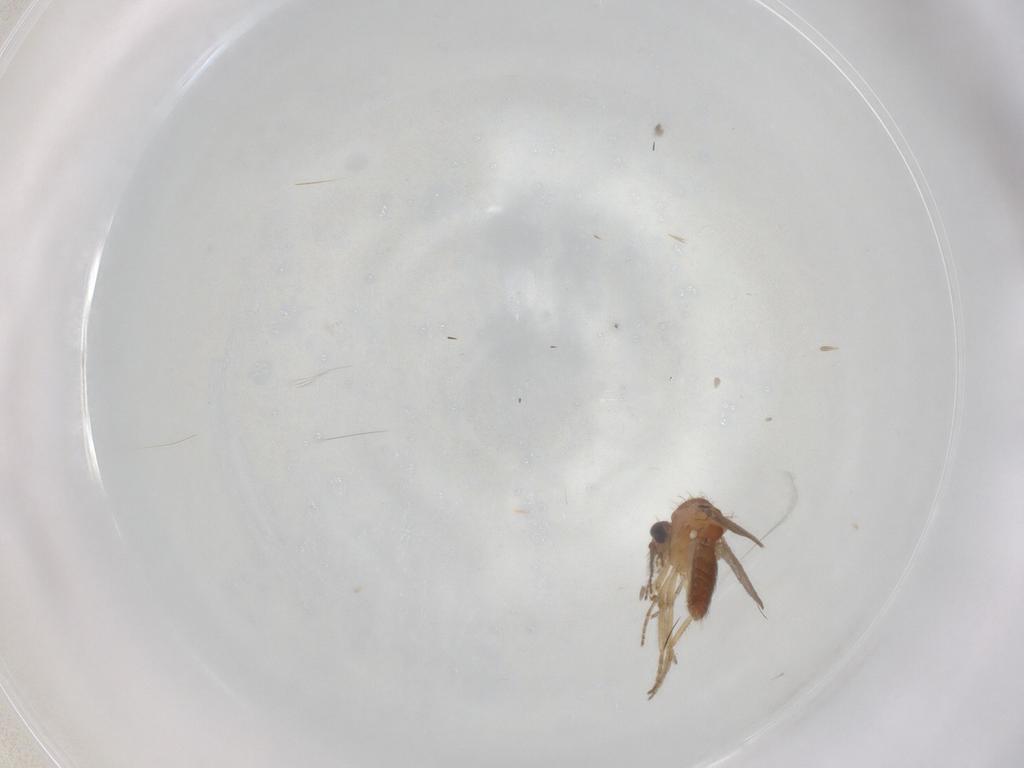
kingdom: Animalia
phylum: Arthropoda
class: Insecta
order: Diptera
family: Ceratopogonidae
